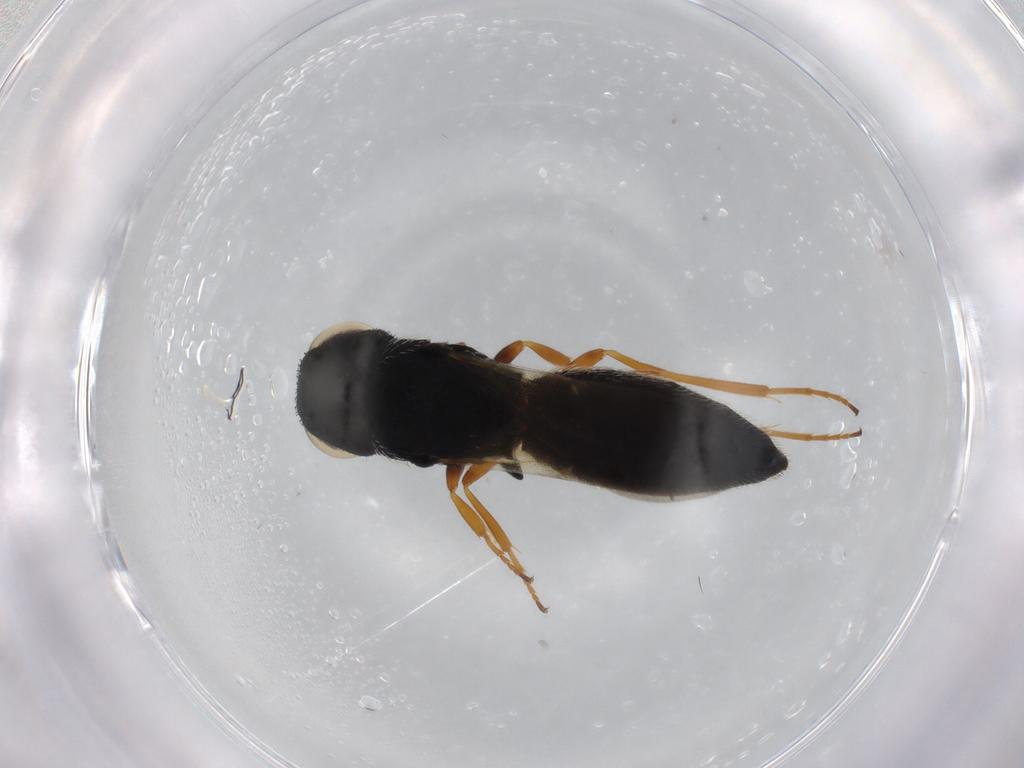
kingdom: Animalia
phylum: Arthropoda
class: Insecta
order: Hymenoptera
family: Scelionidae
